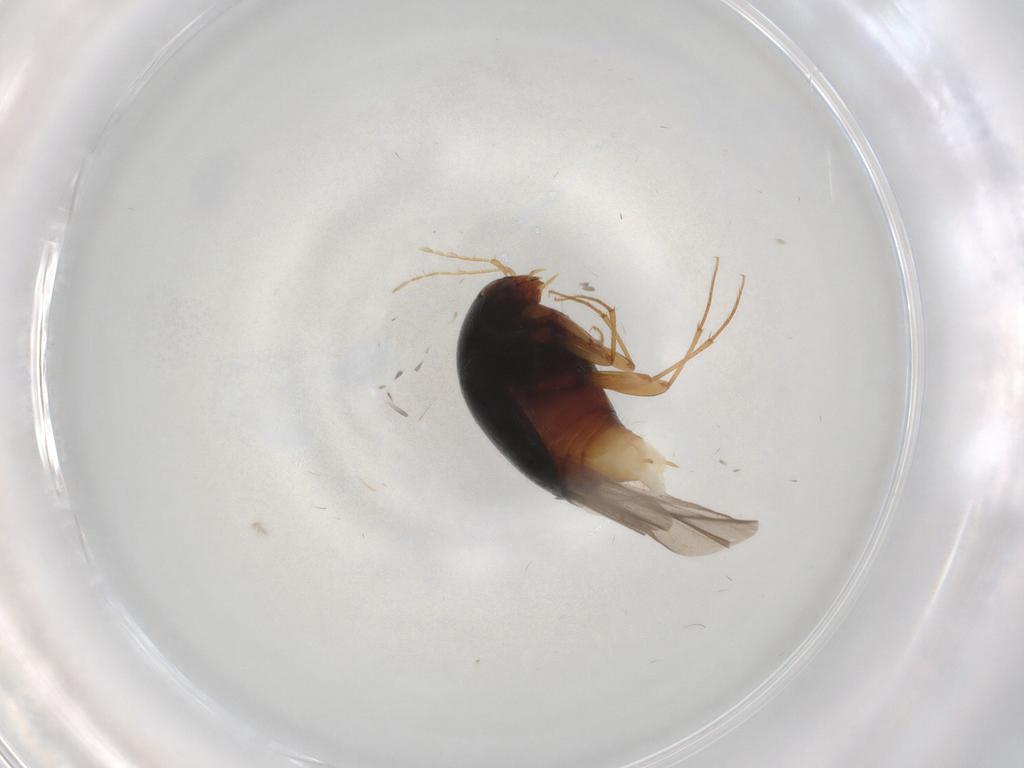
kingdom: Animalia
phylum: Arthropoda
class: Insecta
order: Coleoptera
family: Staphylinidae
